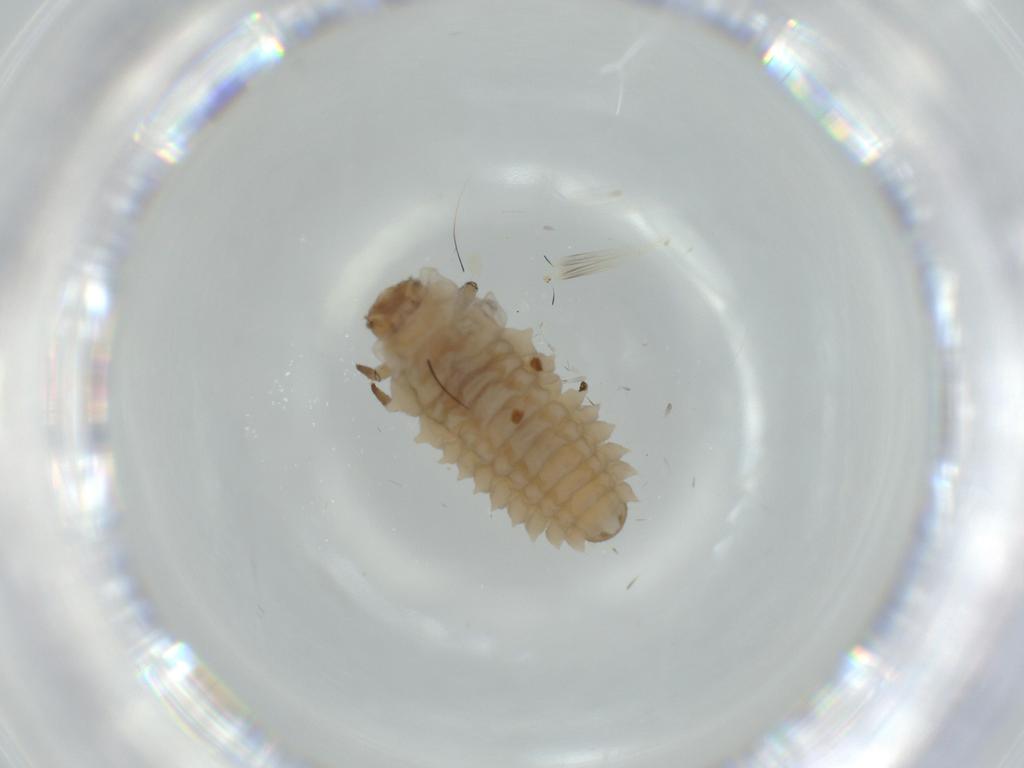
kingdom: Animalia
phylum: Arthropoda
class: Insecta
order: Coleoptera
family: Coccinellidae
